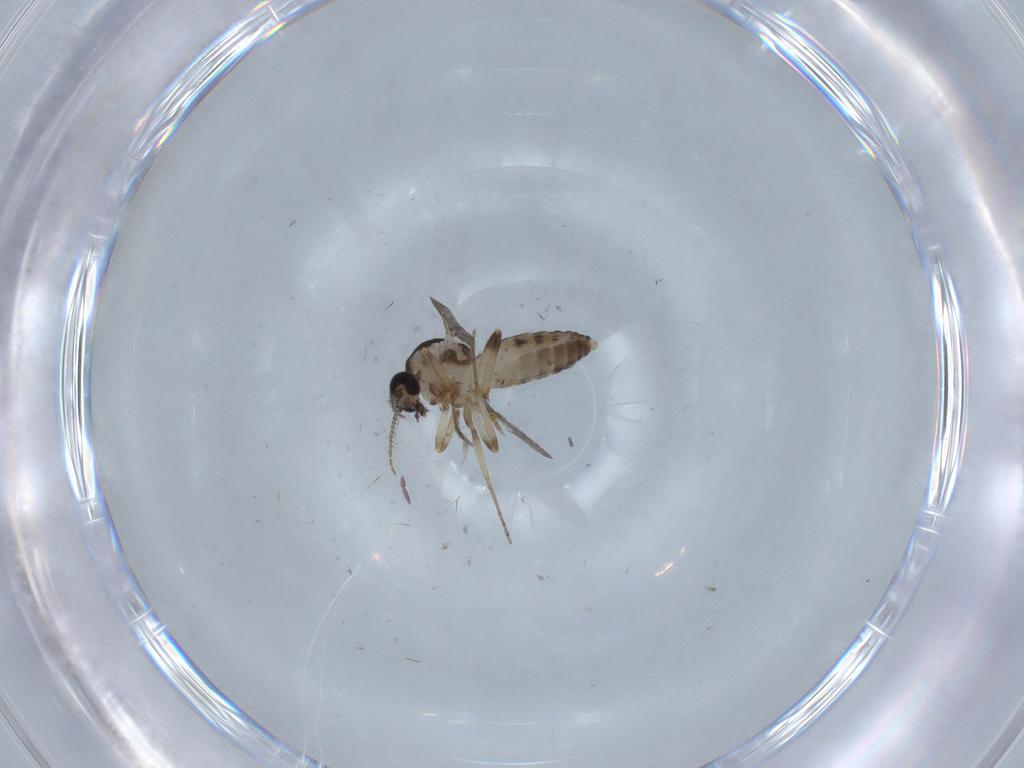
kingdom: Animalia
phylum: Arthropoda
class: Insecta
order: Diptera
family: Ceratopogonidae
